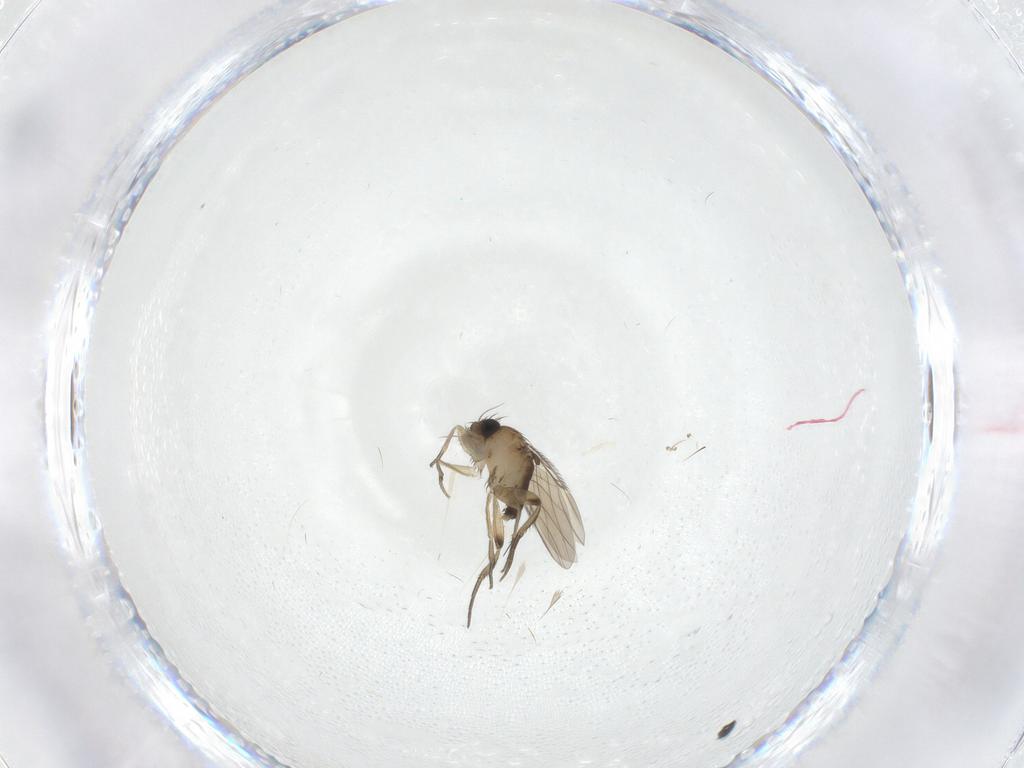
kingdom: Animalia
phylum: Arthropoda
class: Insecta
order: Diptera
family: Phoridae
